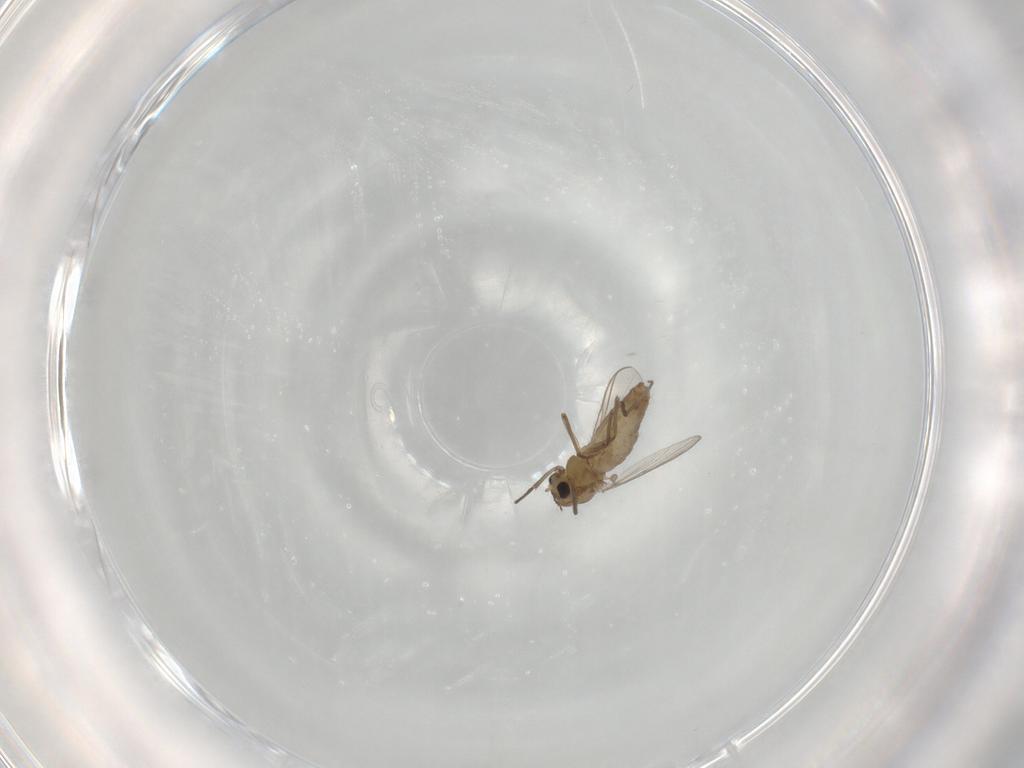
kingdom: Animalia
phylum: Arthropoda
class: Insecta
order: Diptera
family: Chironomidae
